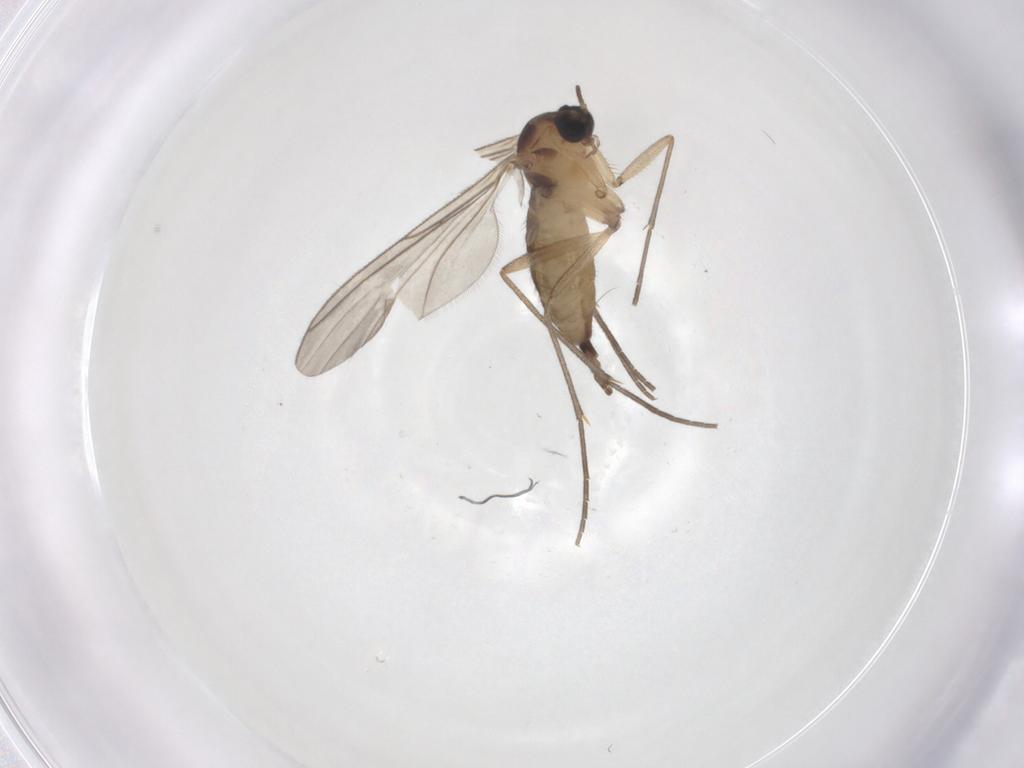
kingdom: Animalia
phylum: Arthropoda
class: Insecta
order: Diptera
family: Sciaridae
